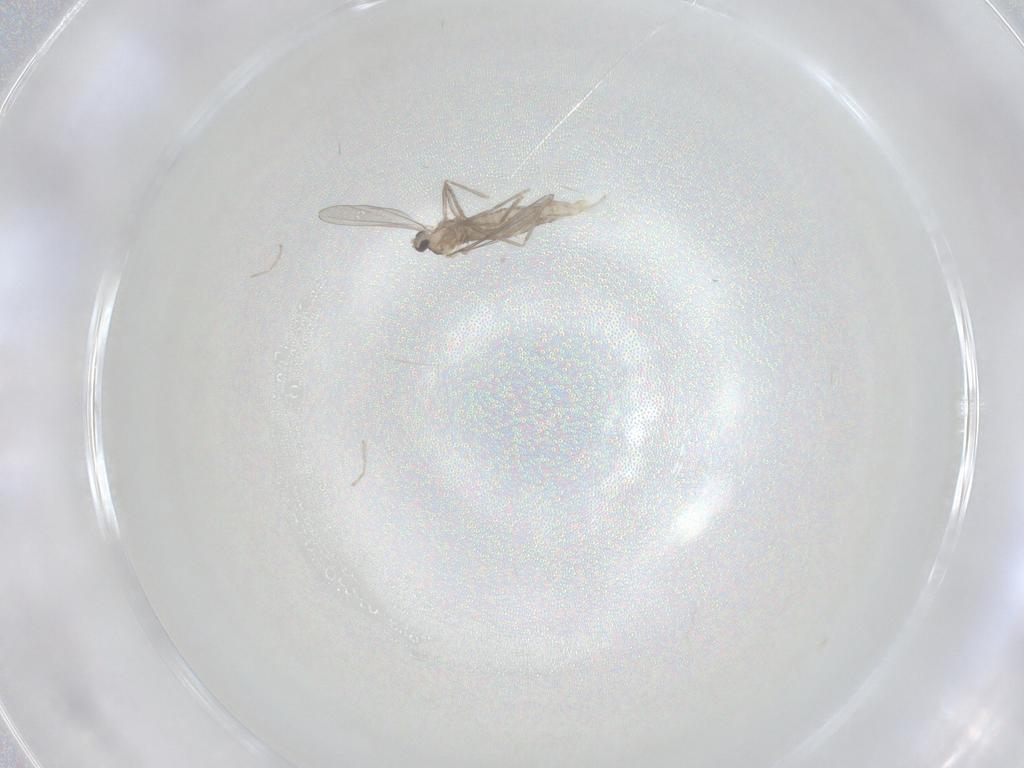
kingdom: Animalia
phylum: Arthropoda
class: Insecta
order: Diptera
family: Cecidomyiidae
